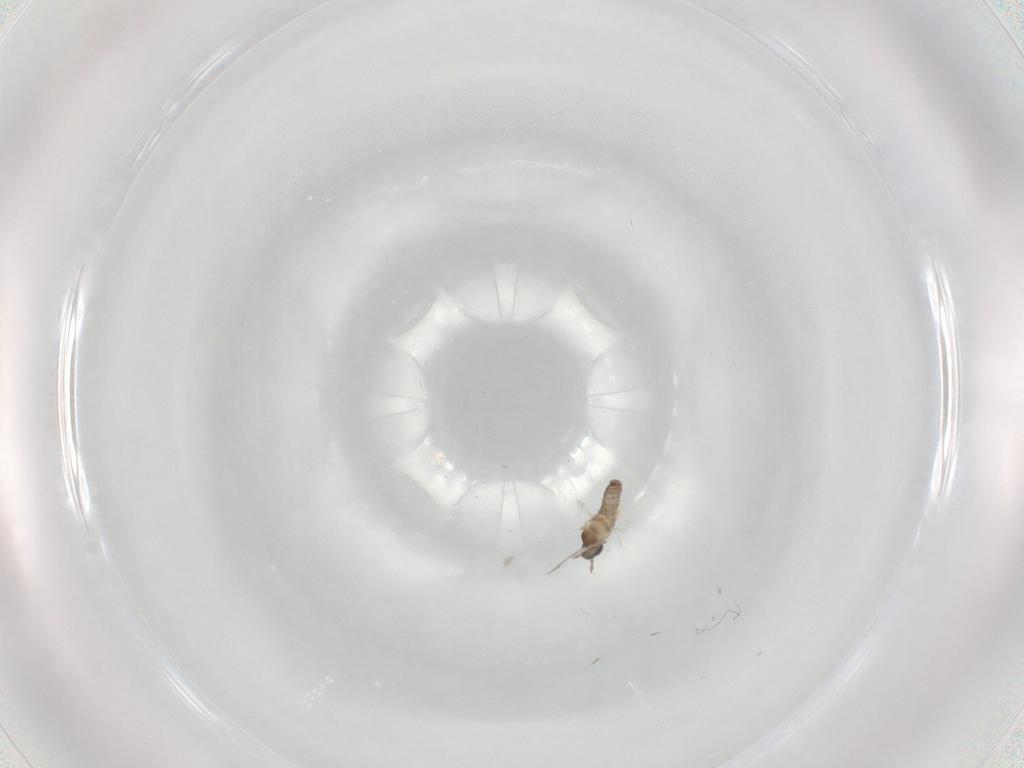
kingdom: Animalia
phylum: Arthropoda
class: Insecta
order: Diptera
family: Cecidomyiidae
